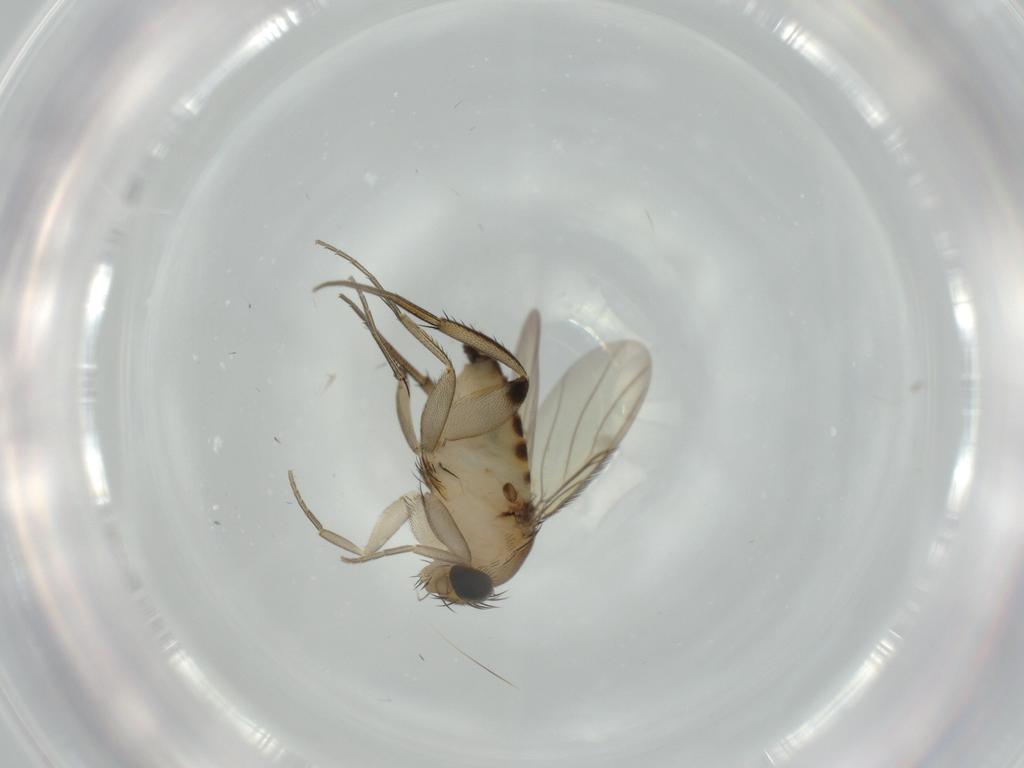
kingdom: Animalia
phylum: Arthropoda
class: Insecta
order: Diptera
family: Phoridae
